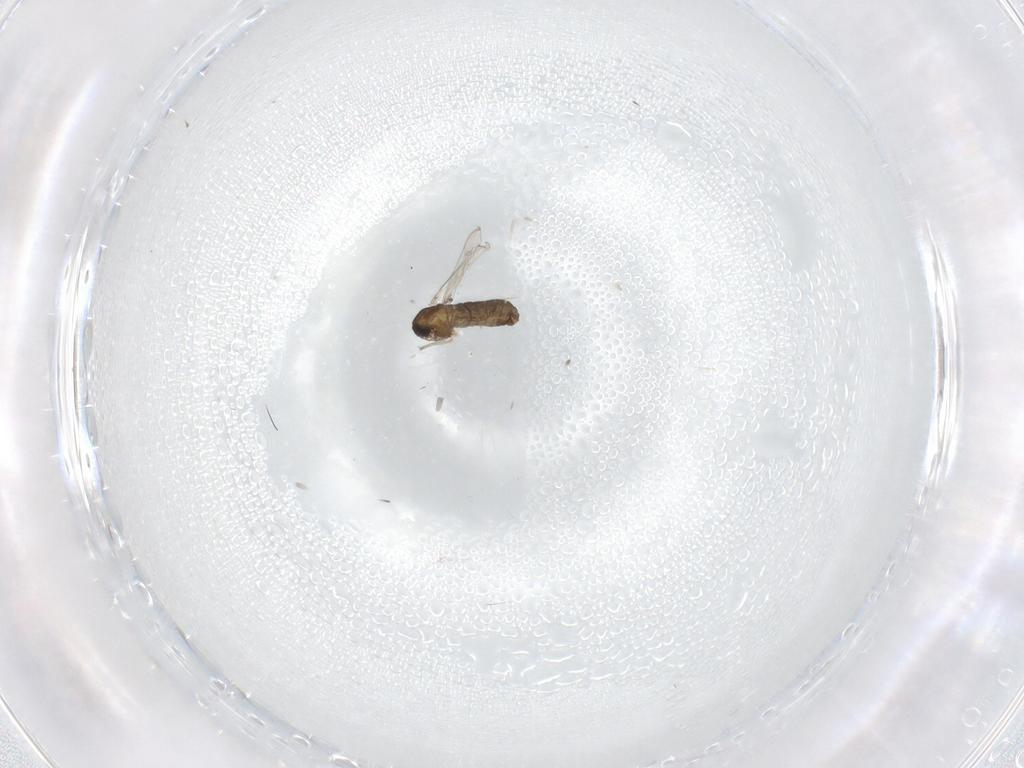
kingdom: Animalia
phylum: Arthropoda
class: Insecta
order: Diptera
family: Chironomidae
